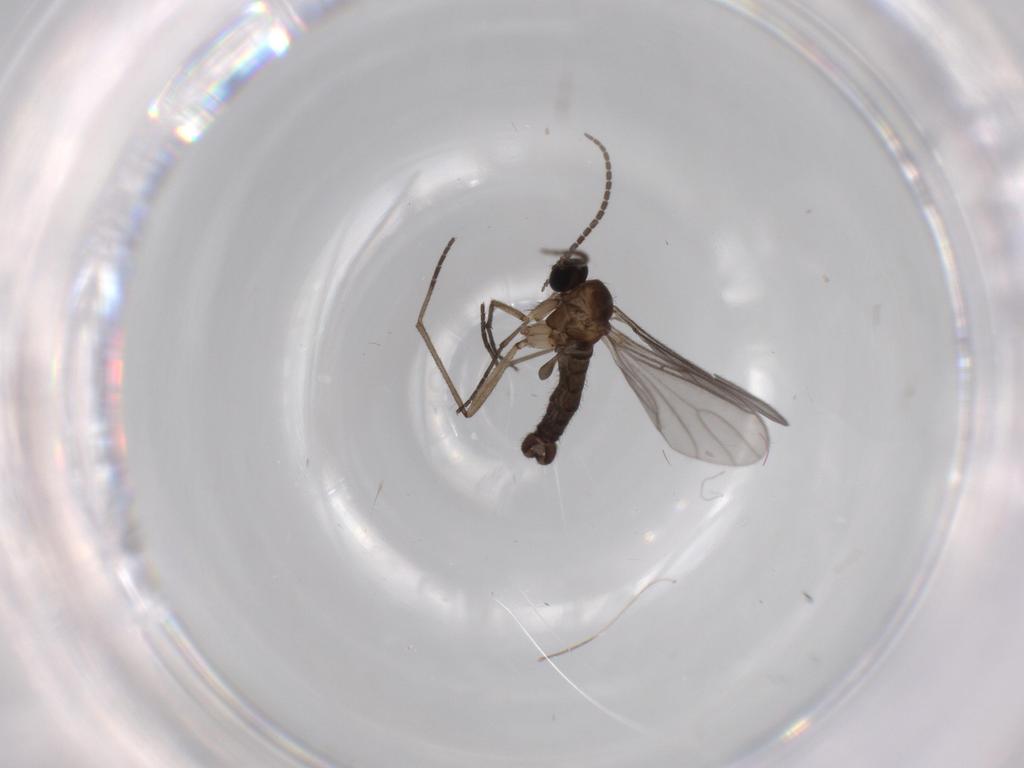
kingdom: Animalia
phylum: Arthropoda
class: Insecta
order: Diptera
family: Sciaridae
